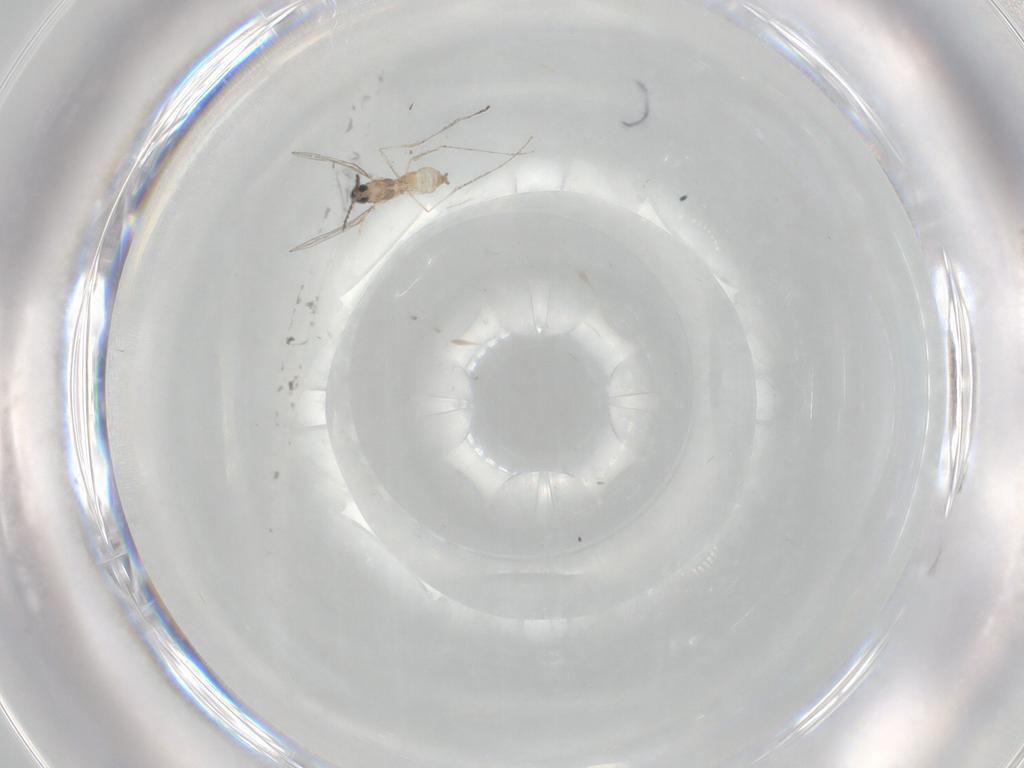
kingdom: Animalia
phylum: Arthropoda
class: Insecta
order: Diptera
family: Cecidomyiidae
